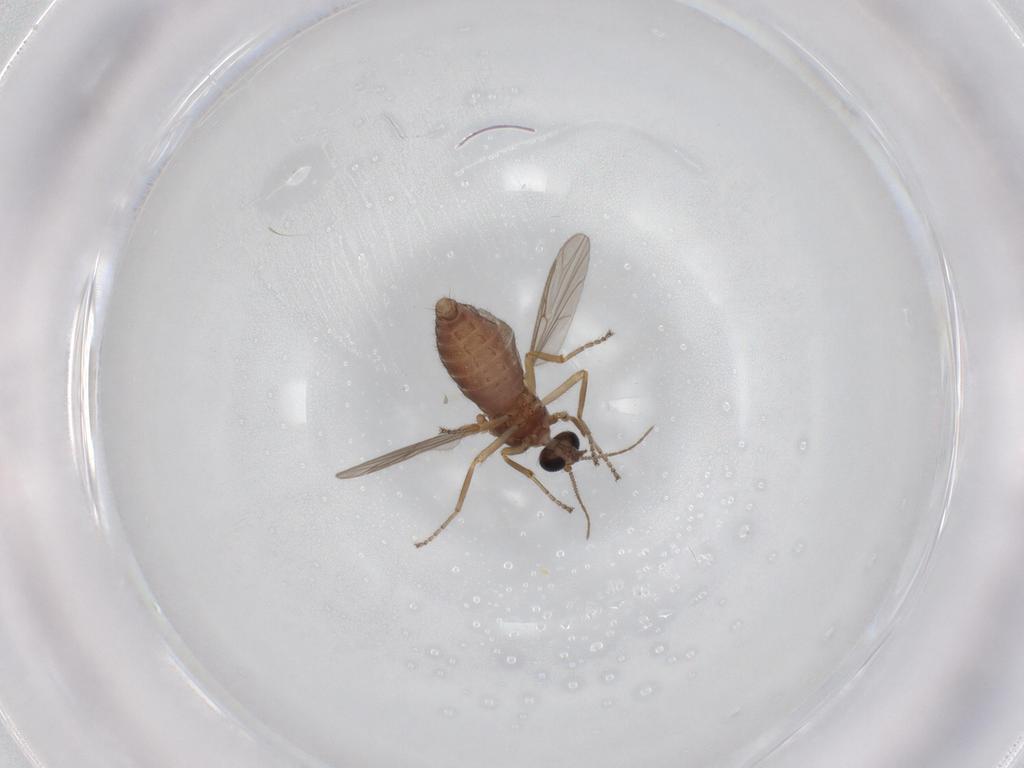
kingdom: Animalia
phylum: Arthropoda
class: Insecta
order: Diptera
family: Ceratopogonidae
